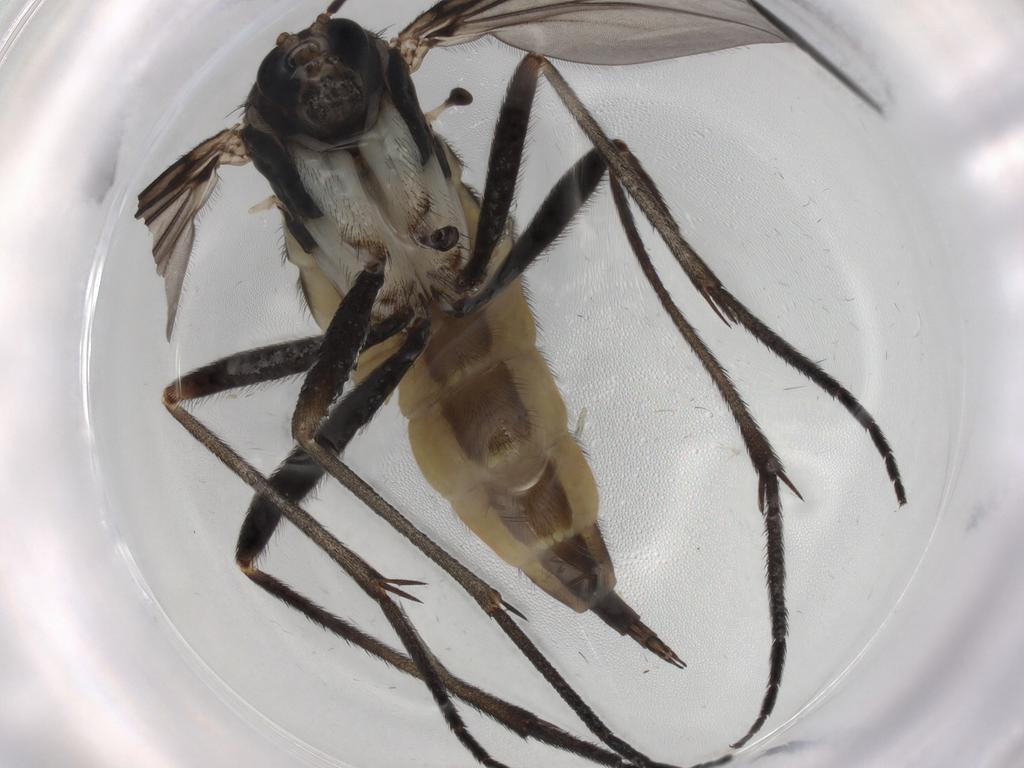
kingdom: Animalia
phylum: Arthropoda
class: Insecta
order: Diptera
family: Sciaridae
